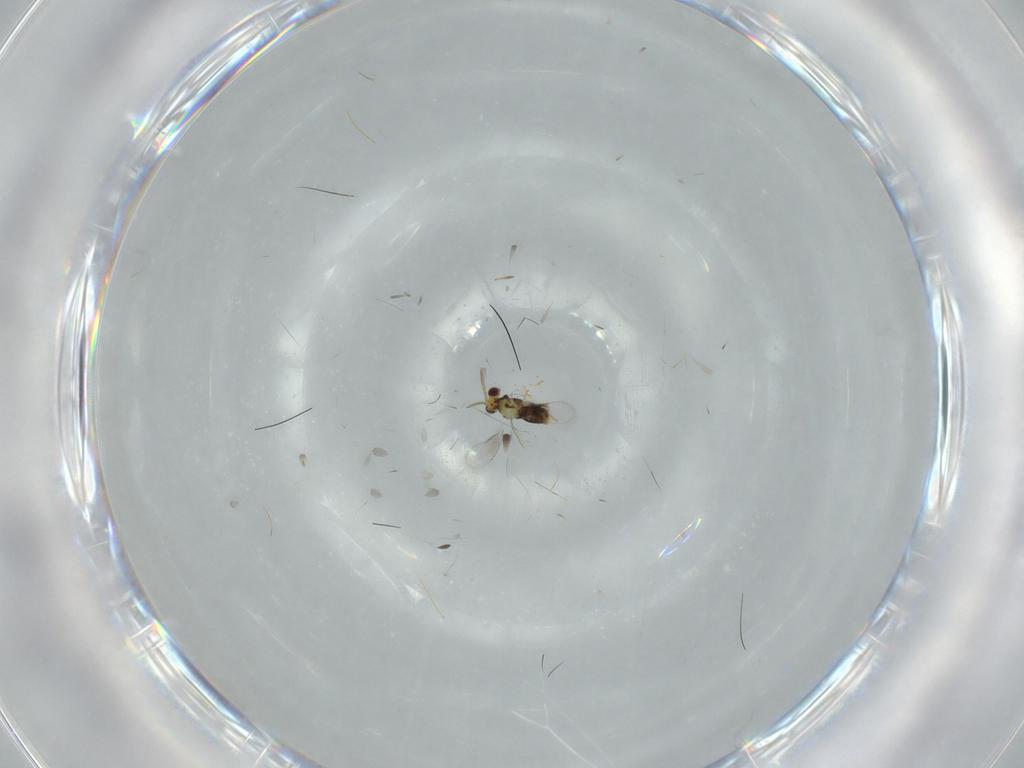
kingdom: Animalia
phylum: Arthropoda
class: Insecta
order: Hymenoptera
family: Aphelinidae
